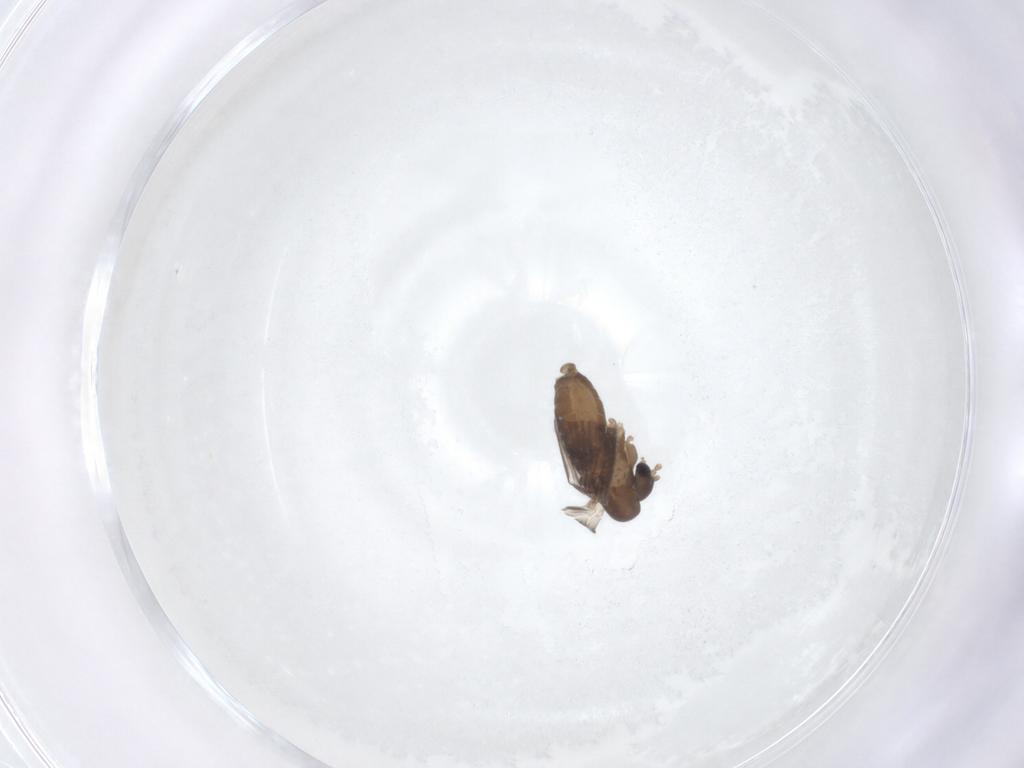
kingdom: Animalia
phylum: Arthropoda
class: Insecta
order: Diptera
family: Psychodidae
